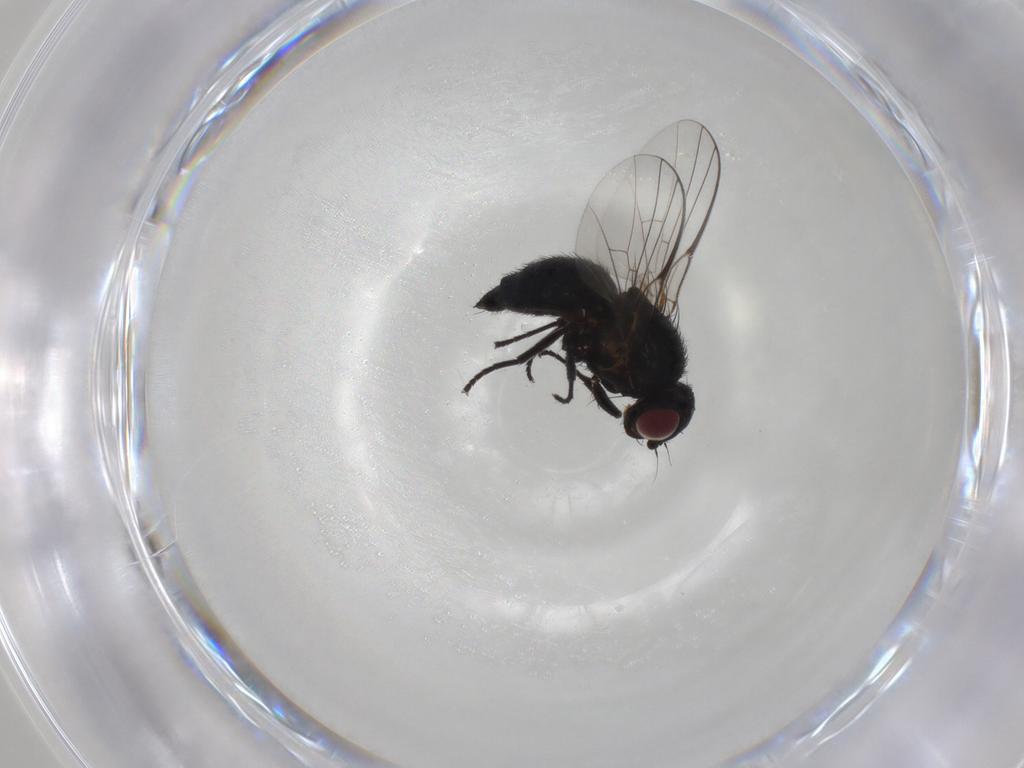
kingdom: Animalia
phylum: Arthropoda
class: Insecta
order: Diptera
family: Agromyzidae
